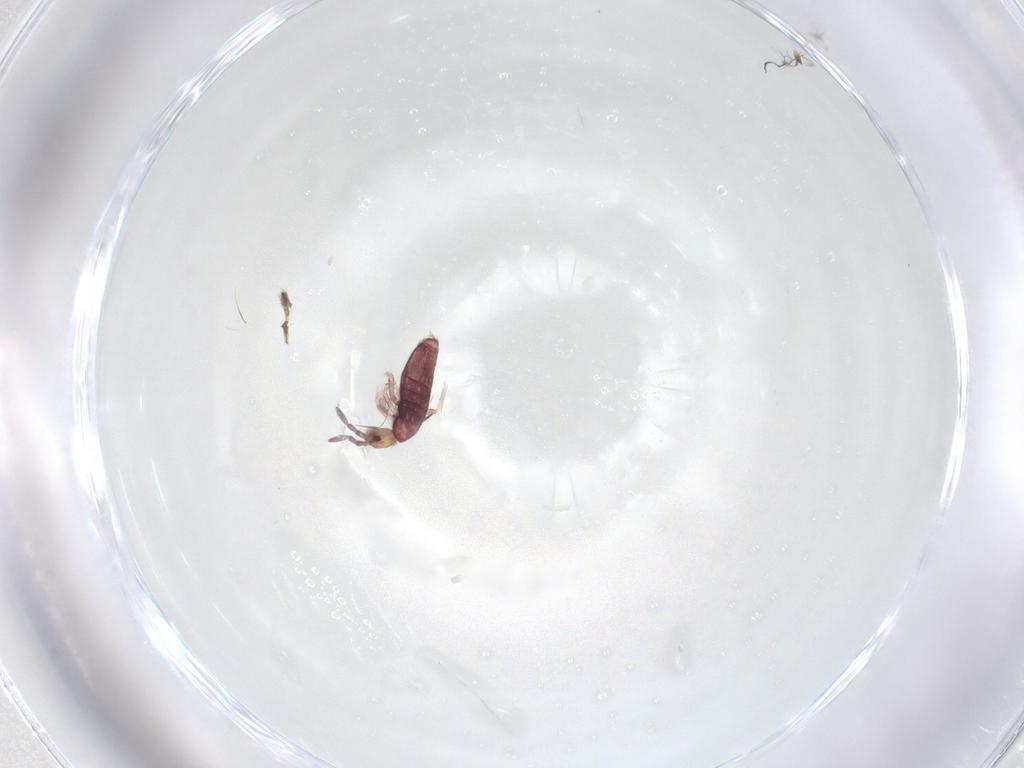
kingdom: Animalia
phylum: Arthropoda
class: Collembola
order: Entomobryomorpha
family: Entomobryidae
